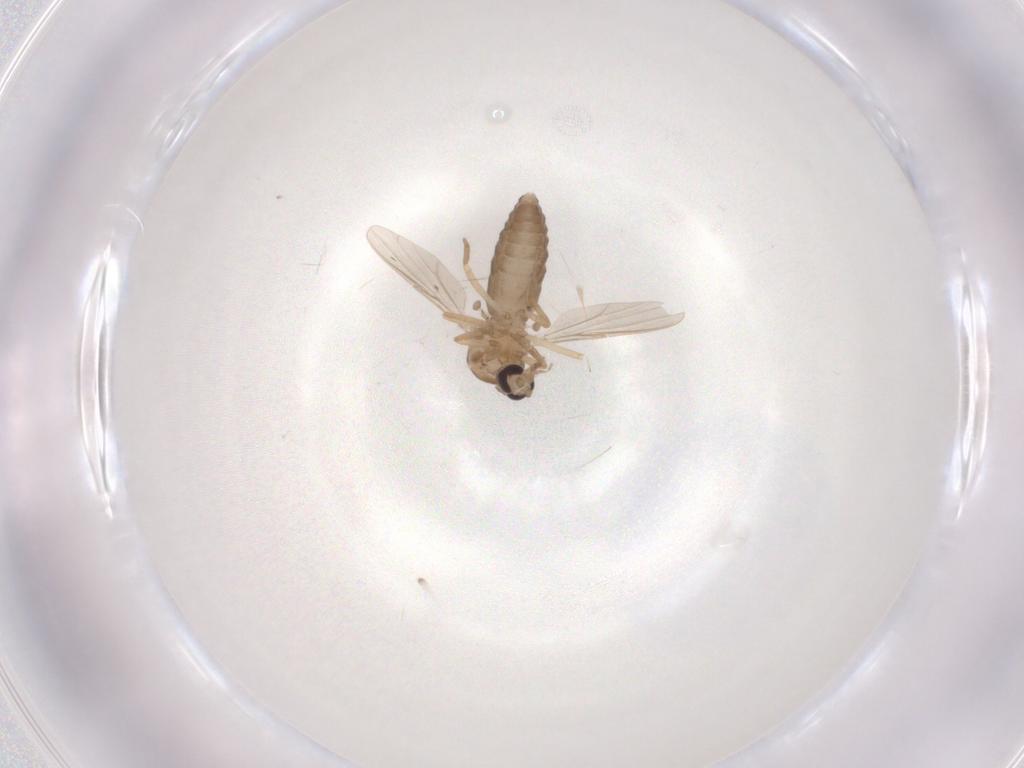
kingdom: Animalia
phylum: Arthropoda
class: Insecta
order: Diptera
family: Ceratopogonidae
